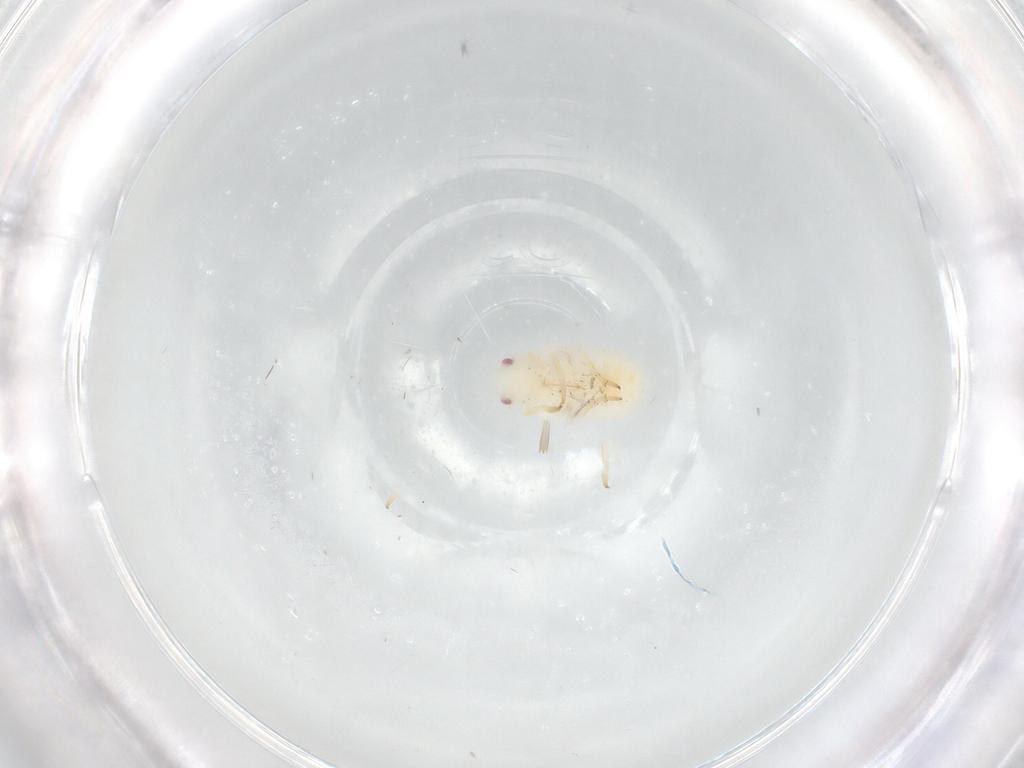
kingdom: Animalia
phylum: Arthropoda
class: Insecta
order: Hemiptera
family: Flatidae
